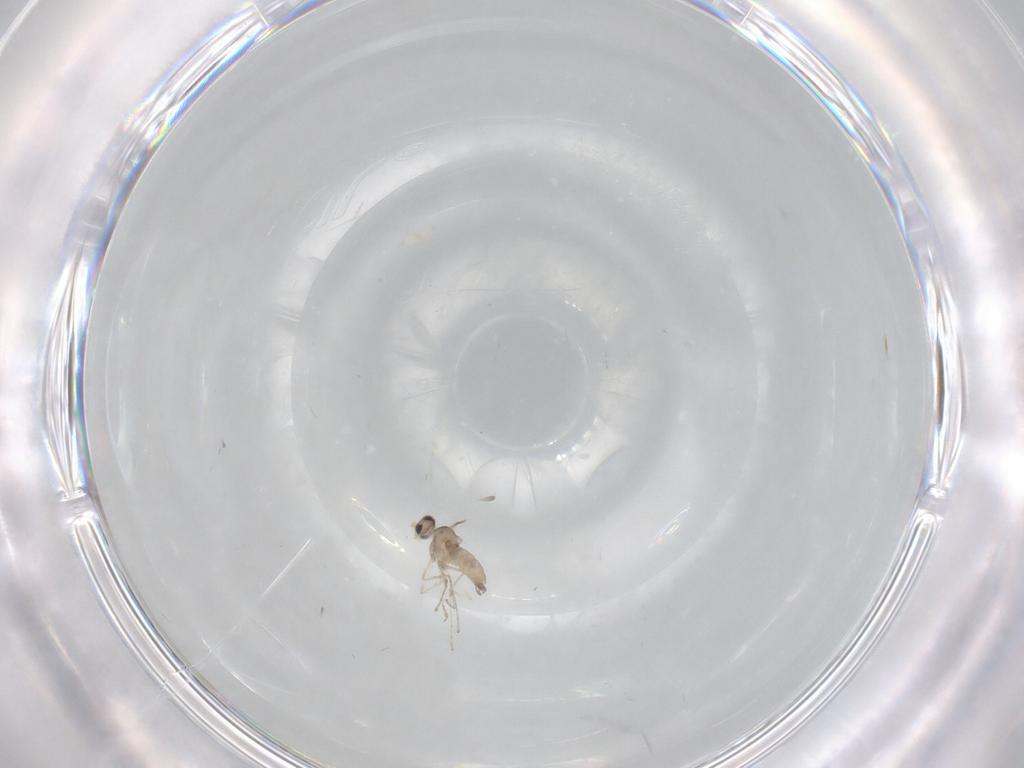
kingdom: Animalia
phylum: Arthropoda
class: Insecta
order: Diptera
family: Cecidomyiidae
